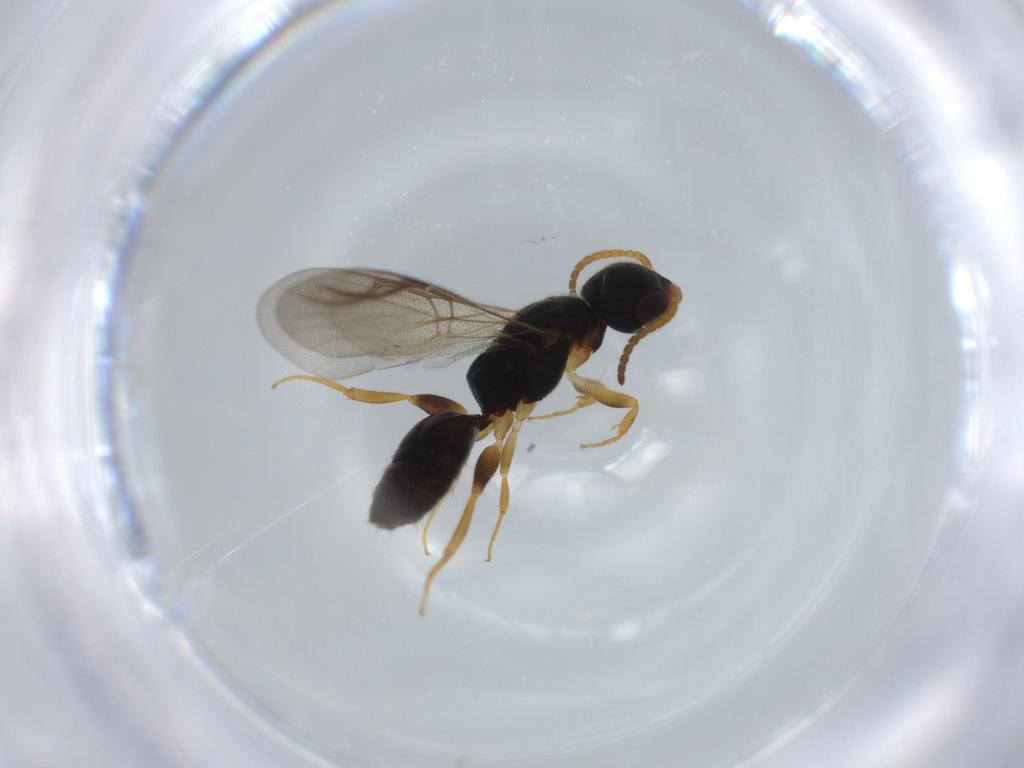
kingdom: Animalia
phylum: Arthropoda
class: Insecta
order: Hymenoptera
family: Bethylidae
